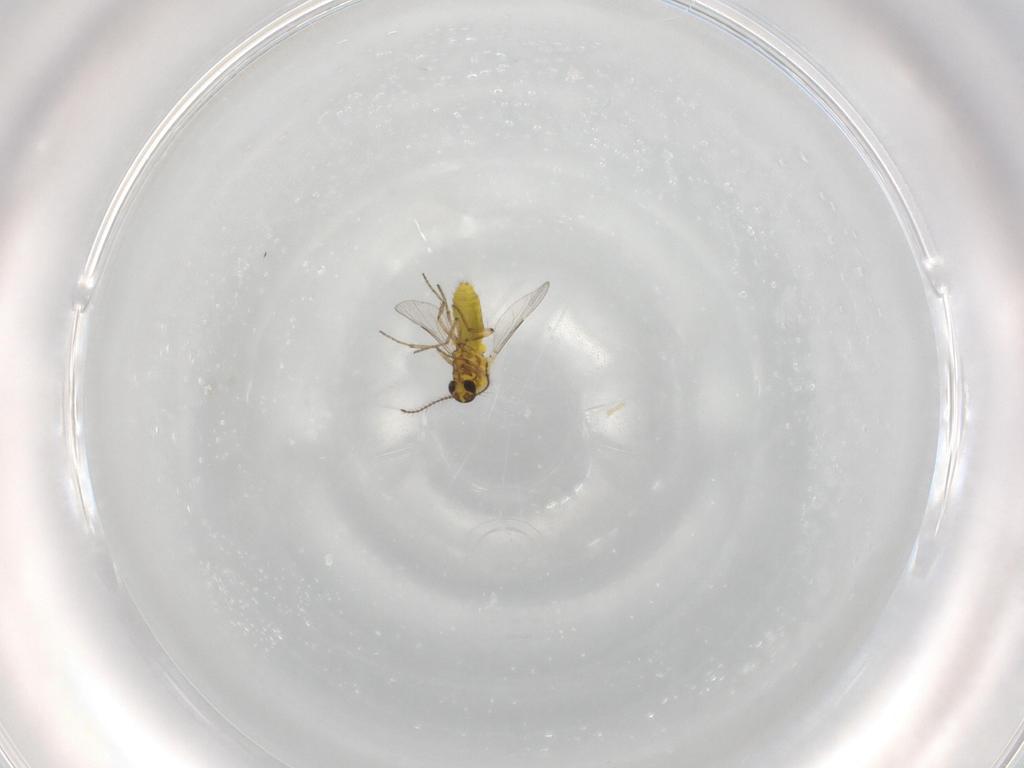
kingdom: Animalia
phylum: Arthropoda
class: Insecta
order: Diptera
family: Ceratopogonidae
